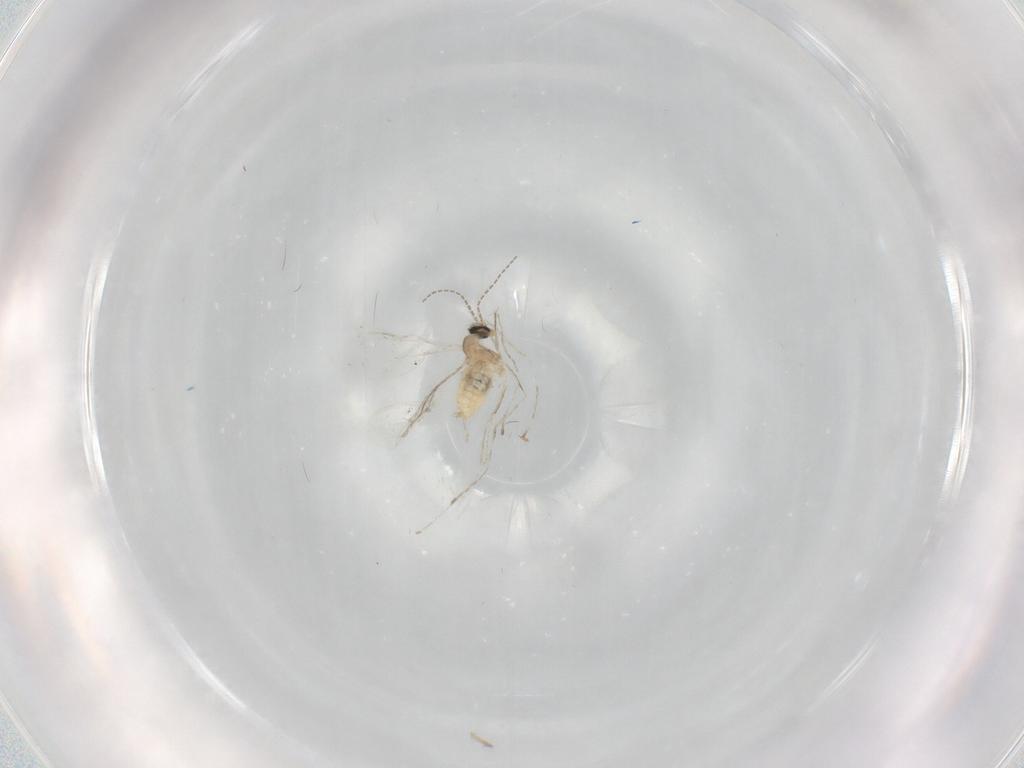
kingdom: Animalia
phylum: Arthropoda
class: Insecta
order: Diptera
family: Cecidomyiidae
